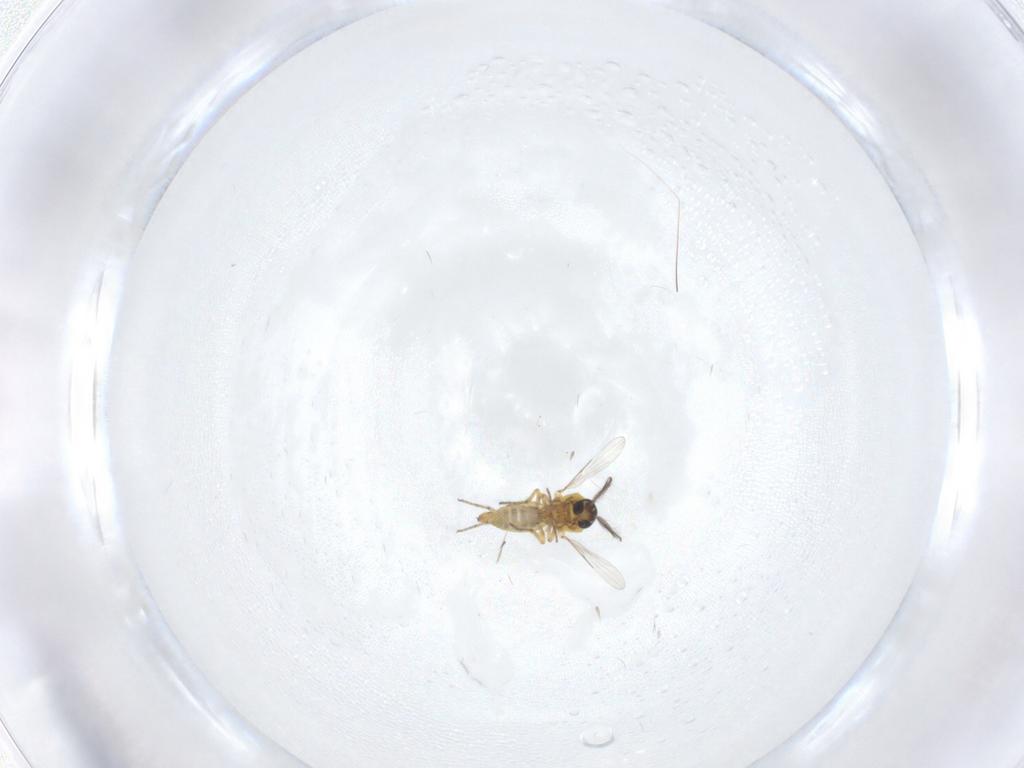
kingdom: Animalia
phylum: Arthropoda
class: Insecta
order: Diptera
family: Ceratopogonidae
